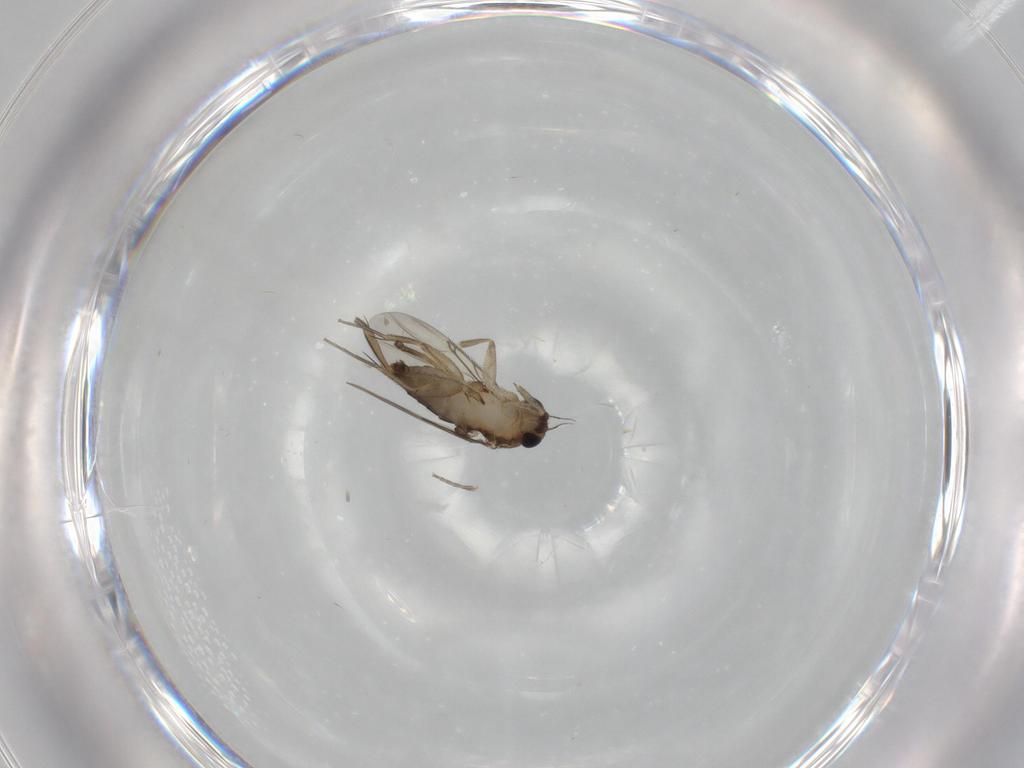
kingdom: Animalia
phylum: Arthropoda
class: Insecta
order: Diptera
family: Phoridae
